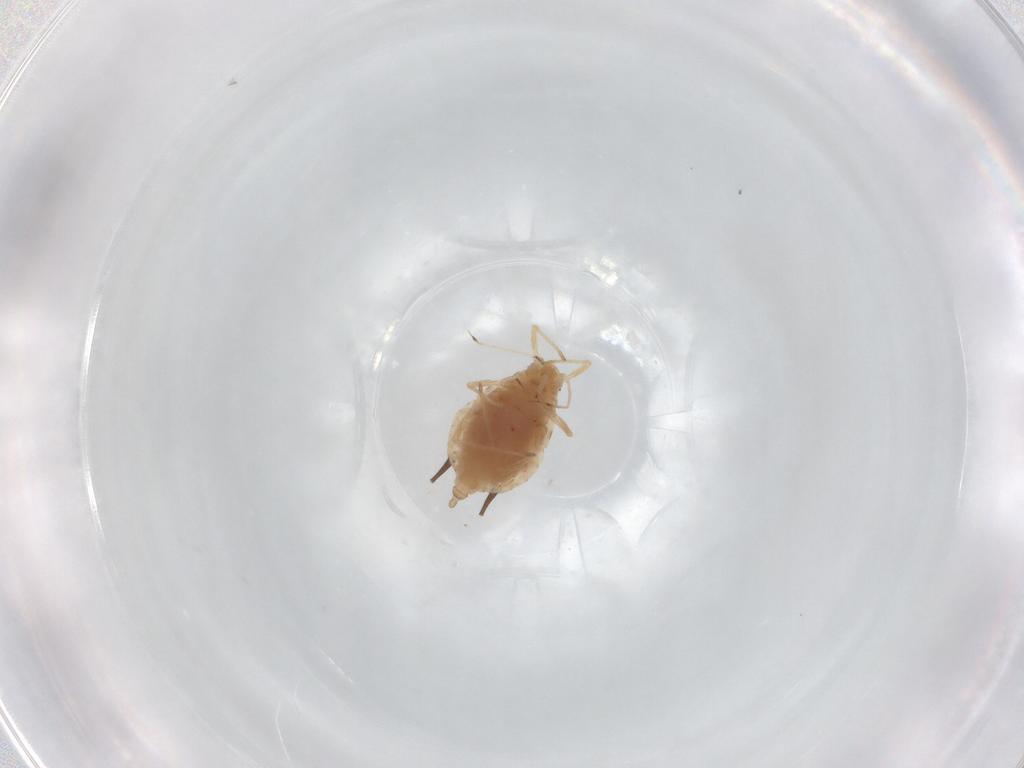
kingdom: Animalia
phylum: Arthropoda
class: Insecta
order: Hemiptera
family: Aphididae
